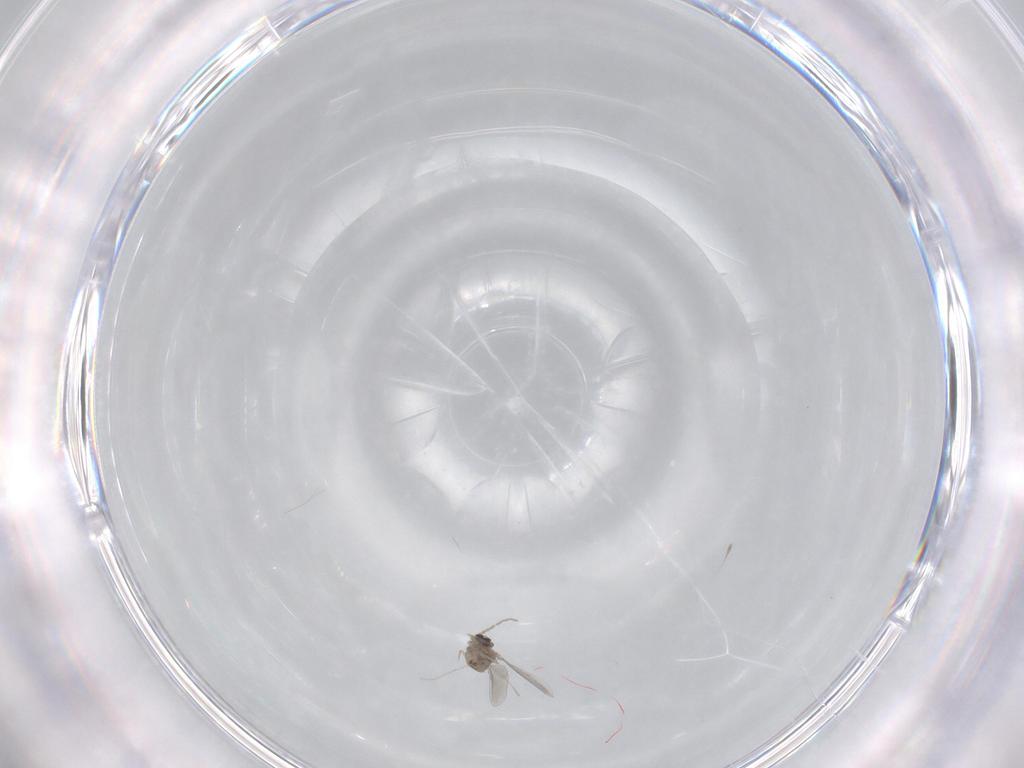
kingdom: Animalia
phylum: Arthropoda
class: Insecta
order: Diptera
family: Cecidomyiidae
